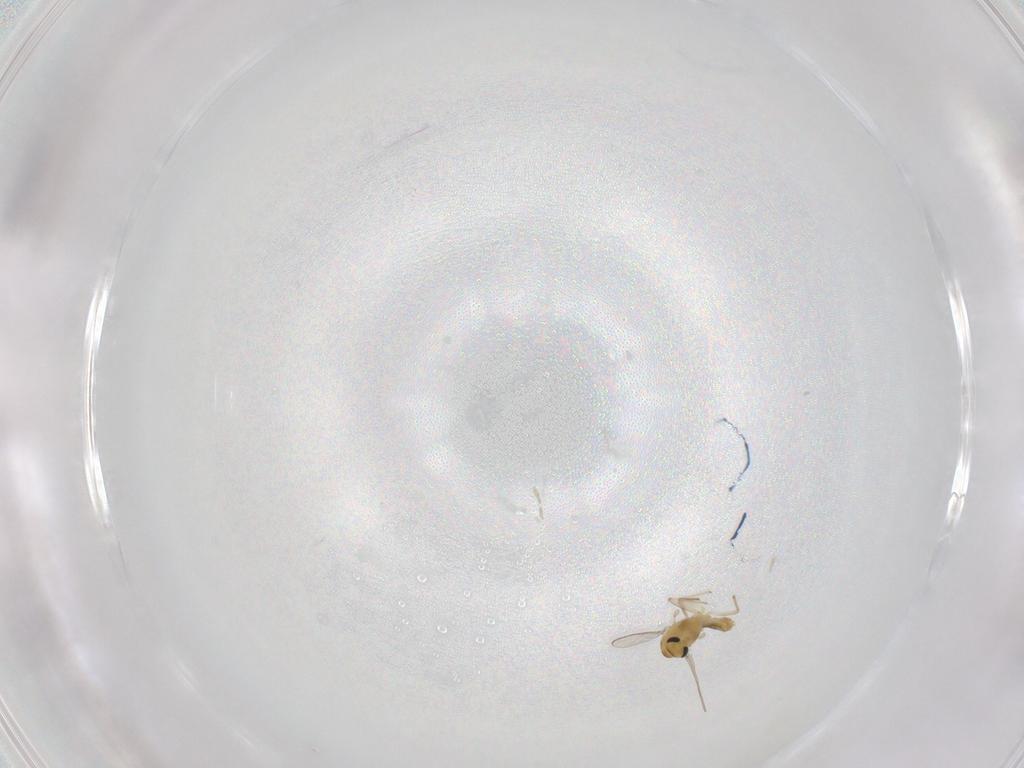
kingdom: Animalia
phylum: Arthropoda
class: Insecta
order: Diptera
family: Chironomidae
